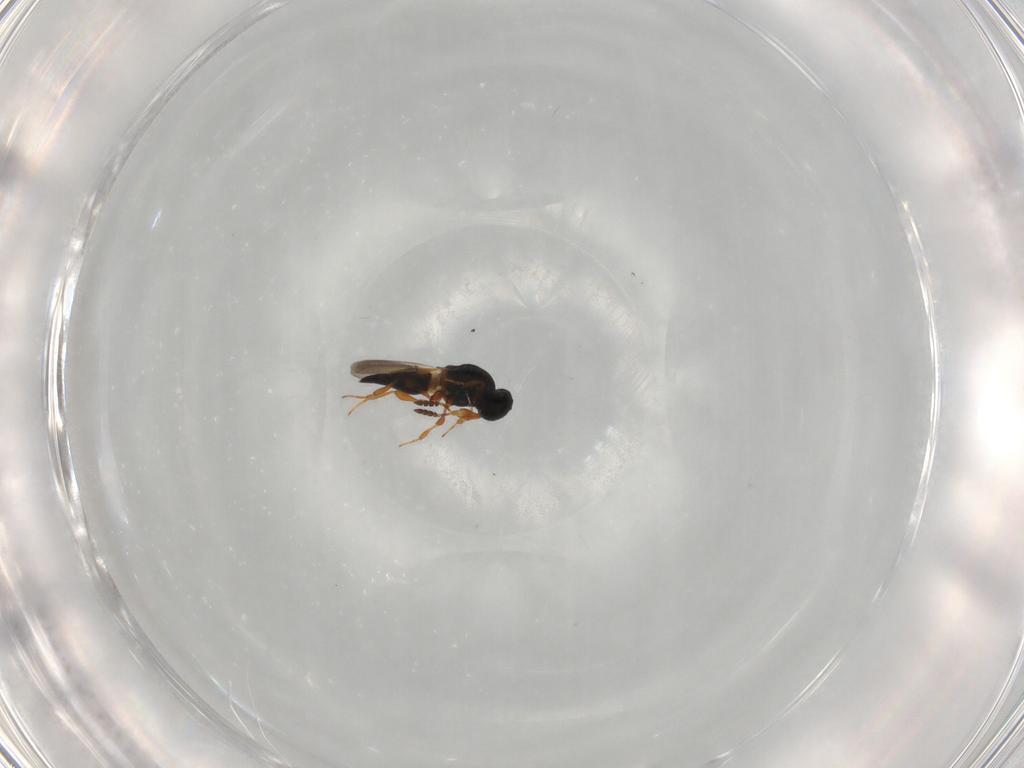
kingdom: Animalia
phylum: Arthropoda
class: Insecta
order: Hymenoptera
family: Platygastridae
